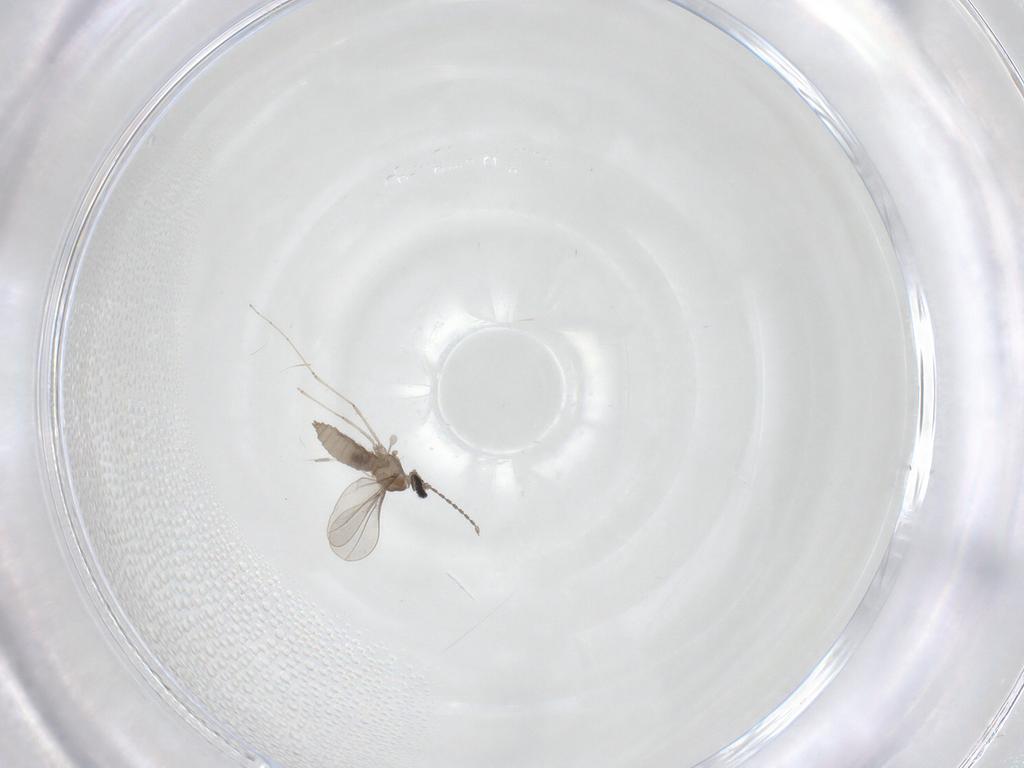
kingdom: Animalia
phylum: Arthropoda
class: Insecta
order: Diptera
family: Cecidomyiidae
